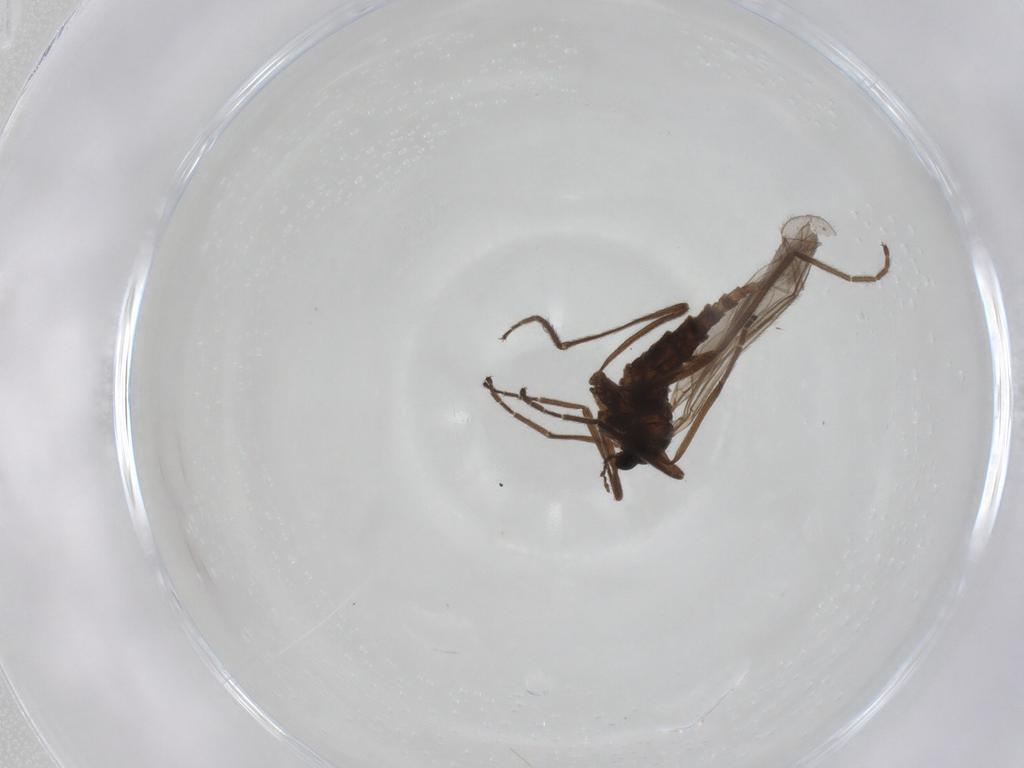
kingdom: Animalia
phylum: Arthropoda
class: Insecta
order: Diptera
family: Cecidomyiidae
